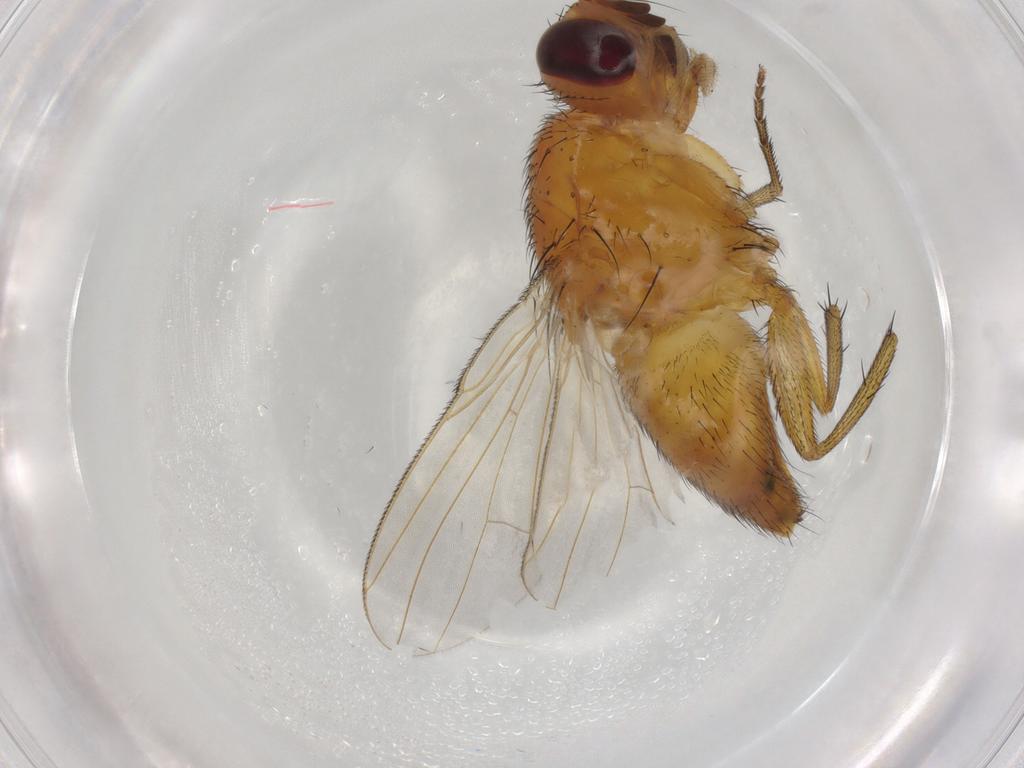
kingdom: Animalia
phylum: Arthropoda
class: Insecta
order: Diptera
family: Muscidae
